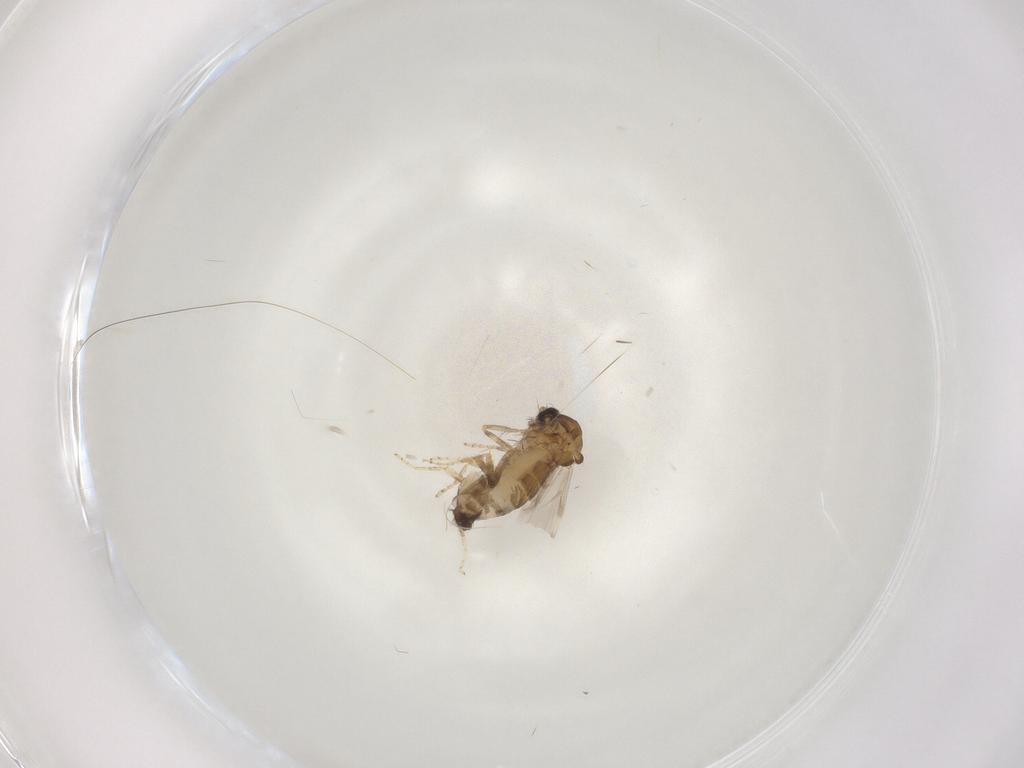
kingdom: Animalia
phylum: Arthropoda
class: Insecta
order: Diptera
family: Ceratopogonidae
